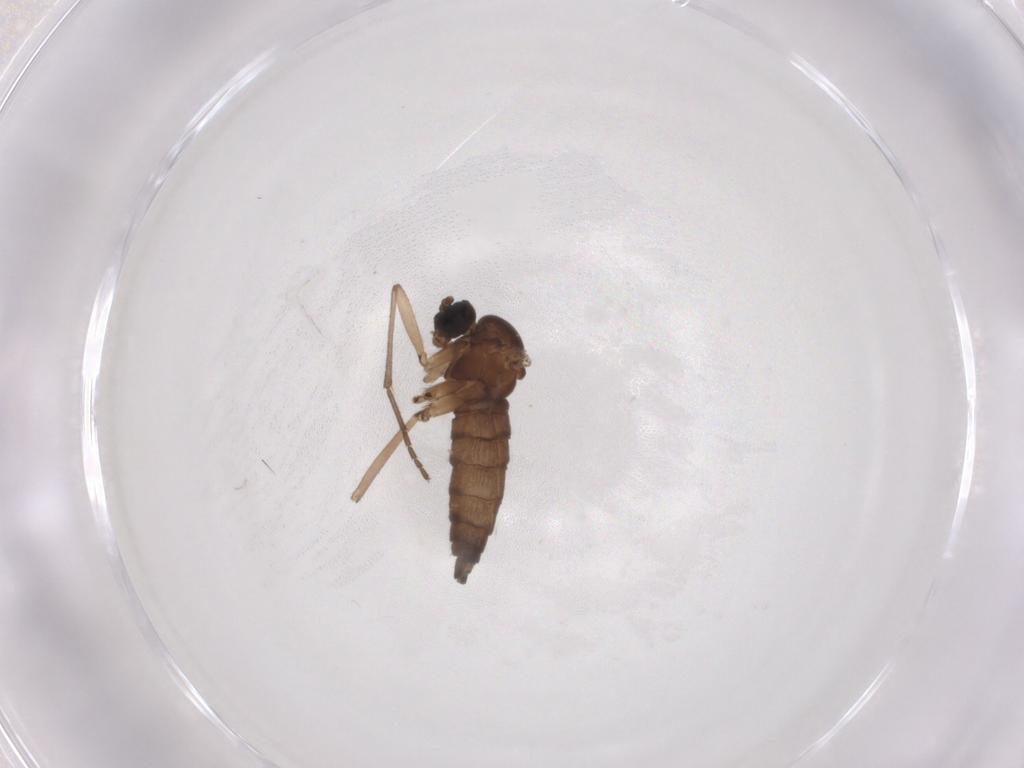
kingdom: Animalia
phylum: Arthropoda
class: Insecta
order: Diptera
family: Sciaridae
